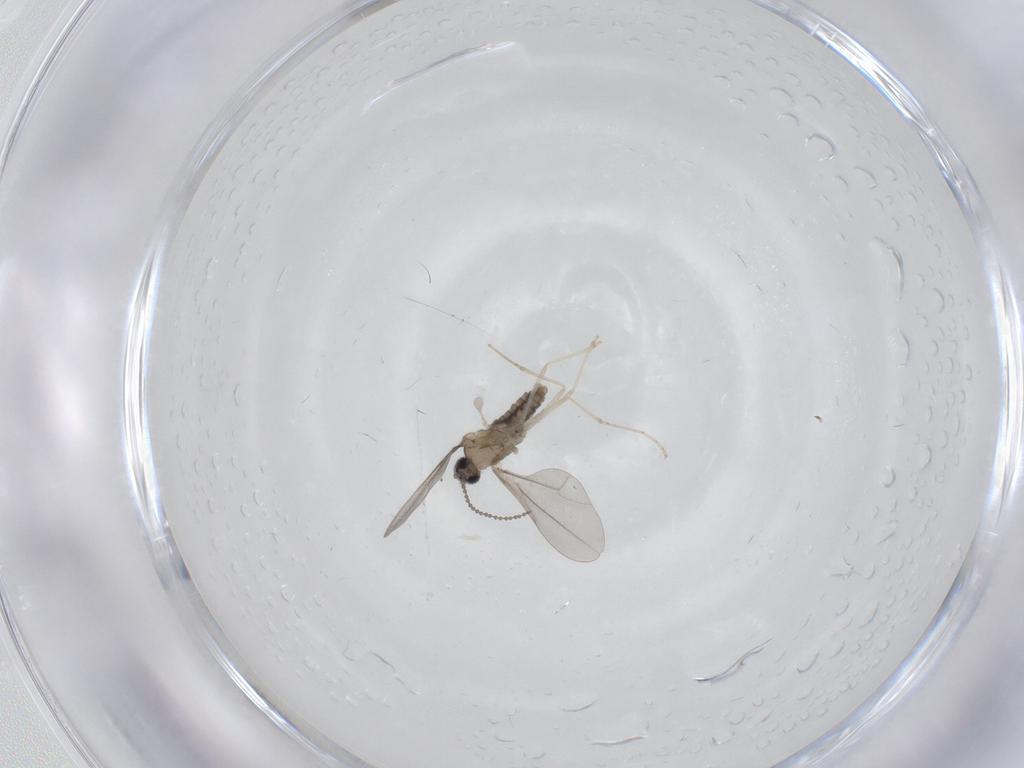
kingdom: Animalia
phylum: Arthropoda
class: Insecta
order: Diptera
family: Cecidomyiidae
